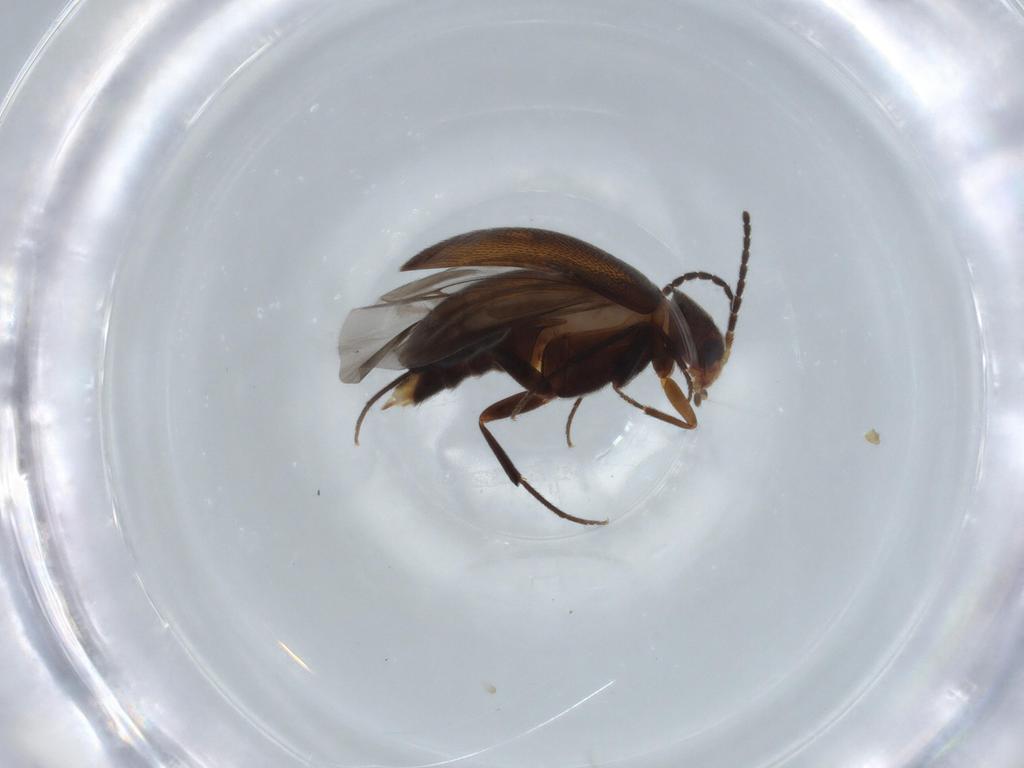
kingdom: Animalia
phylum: Arthropoda
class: Insecta
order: Coleoptera
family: Melandryidae
